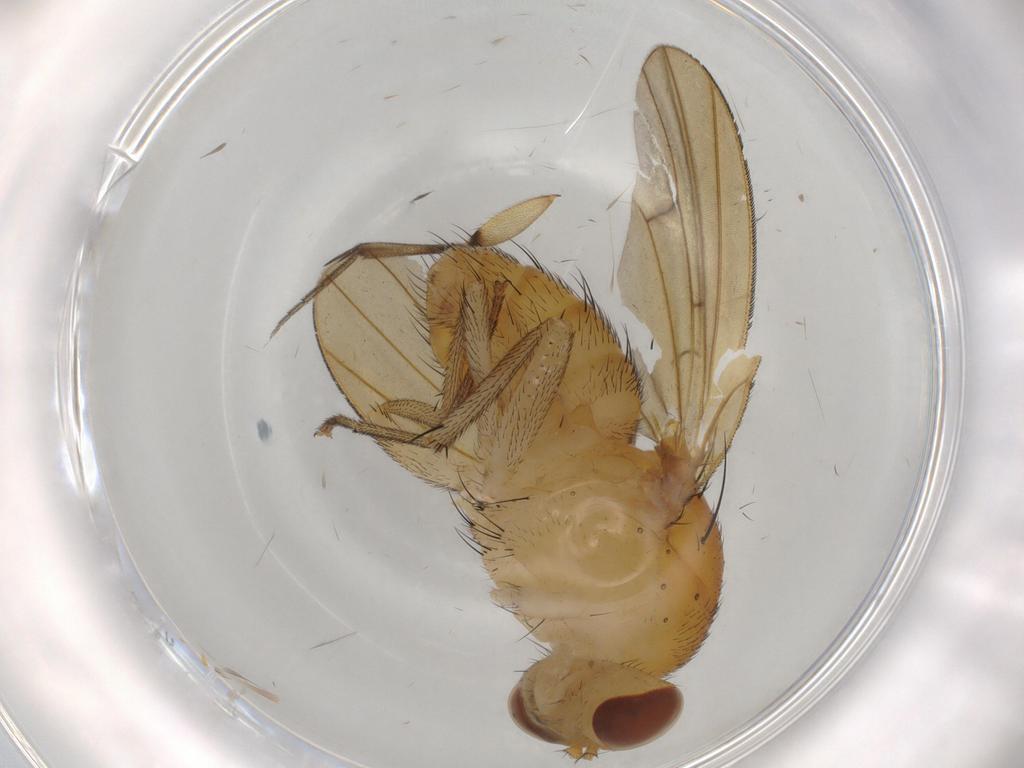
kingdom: Animalia
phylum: Arthropoda
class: Insecta
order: Diptera
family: Lauxaniidae
